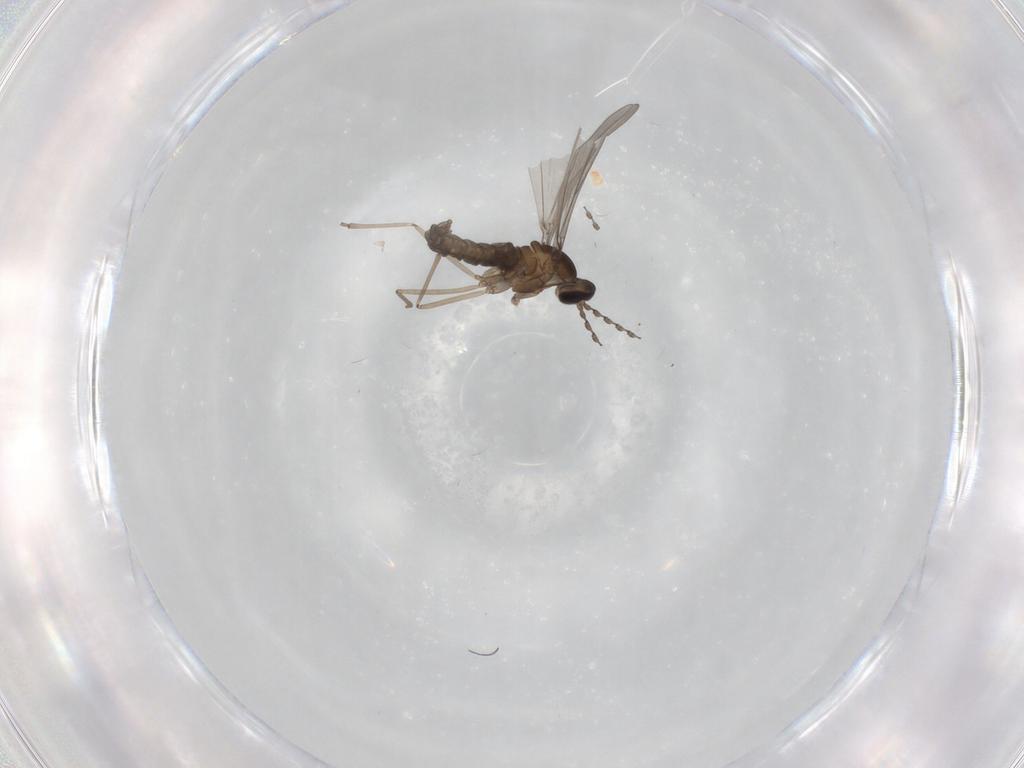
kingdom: Animalia
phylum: Arthropoda
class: Insecta
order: Diptera
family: Cecidomyiidae
